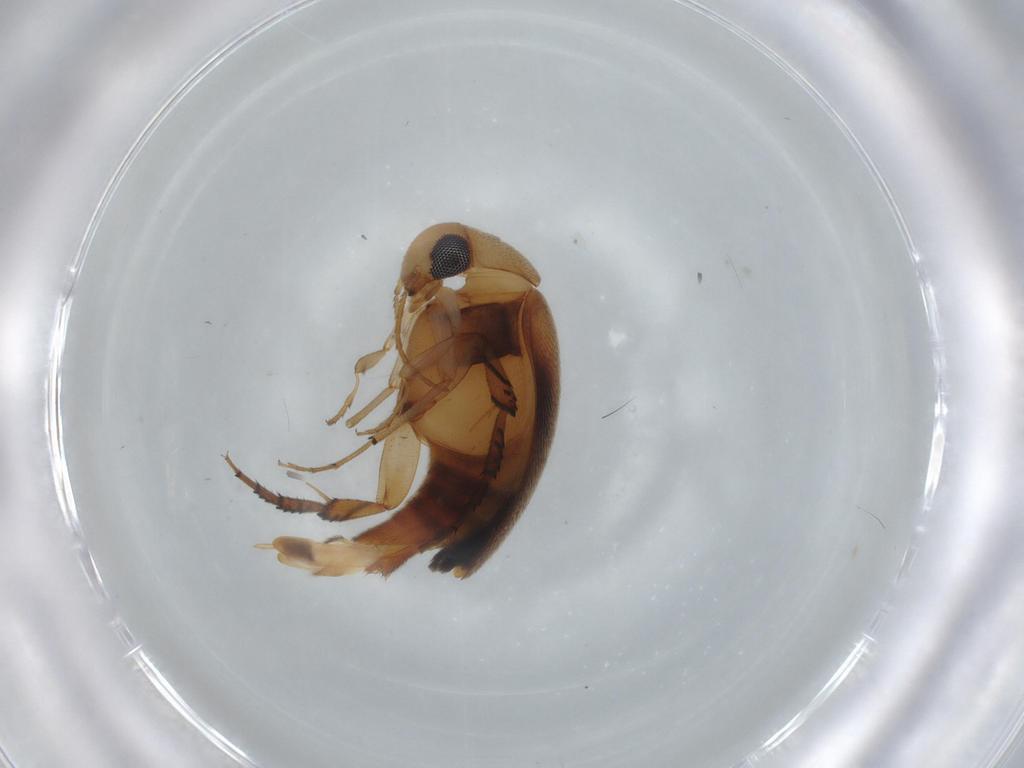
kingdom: Animalia
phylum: Arthropoda
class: Insecta
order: Coleoptera
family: Mordellidae
